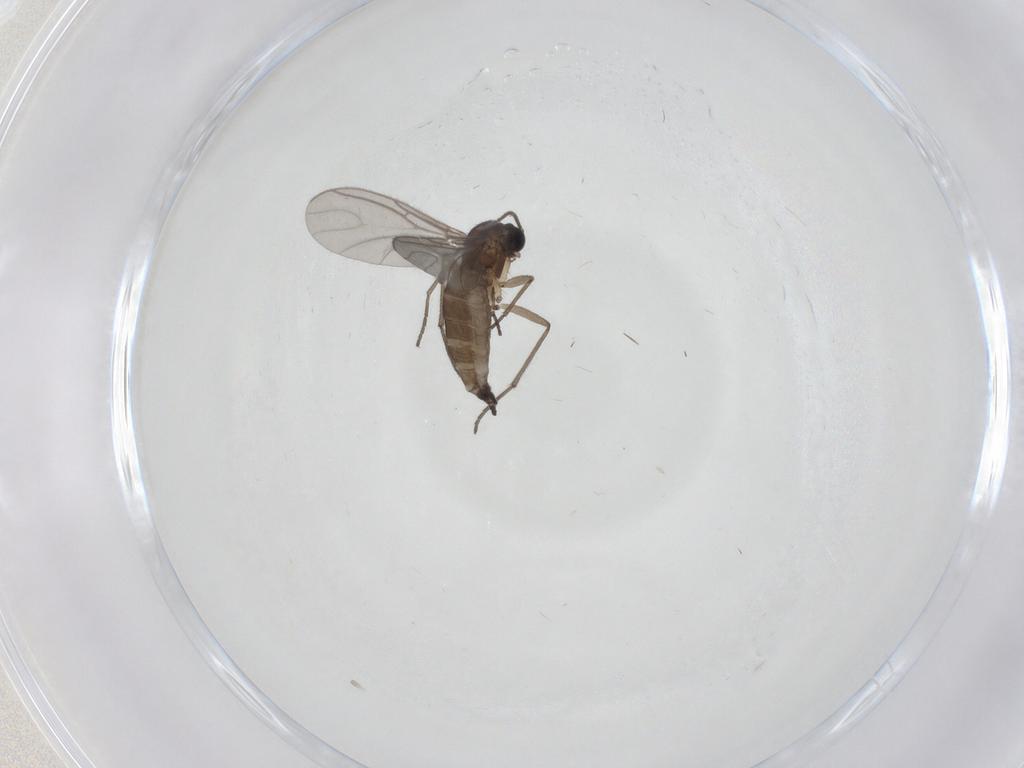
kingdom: Animalia
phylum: Arthropoda
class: Insecta
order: Diptera
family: Sciaridae
